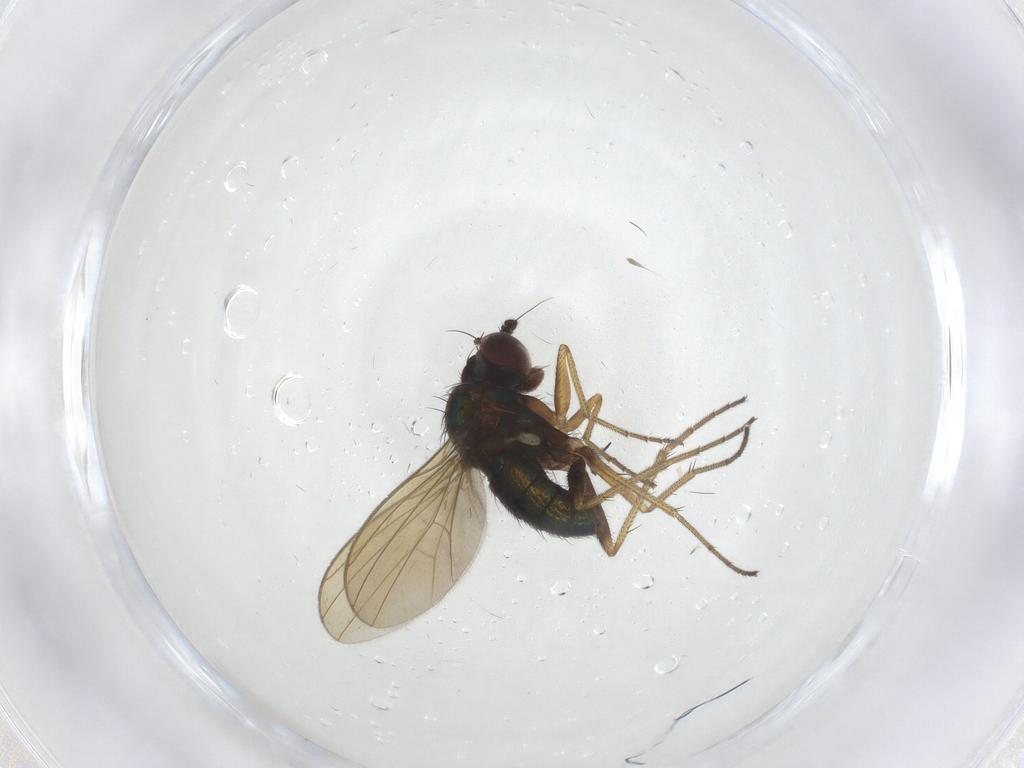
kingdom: Animalia
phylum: Arthropoda
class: Insecta
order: Diptera
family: Dolichopodidae
